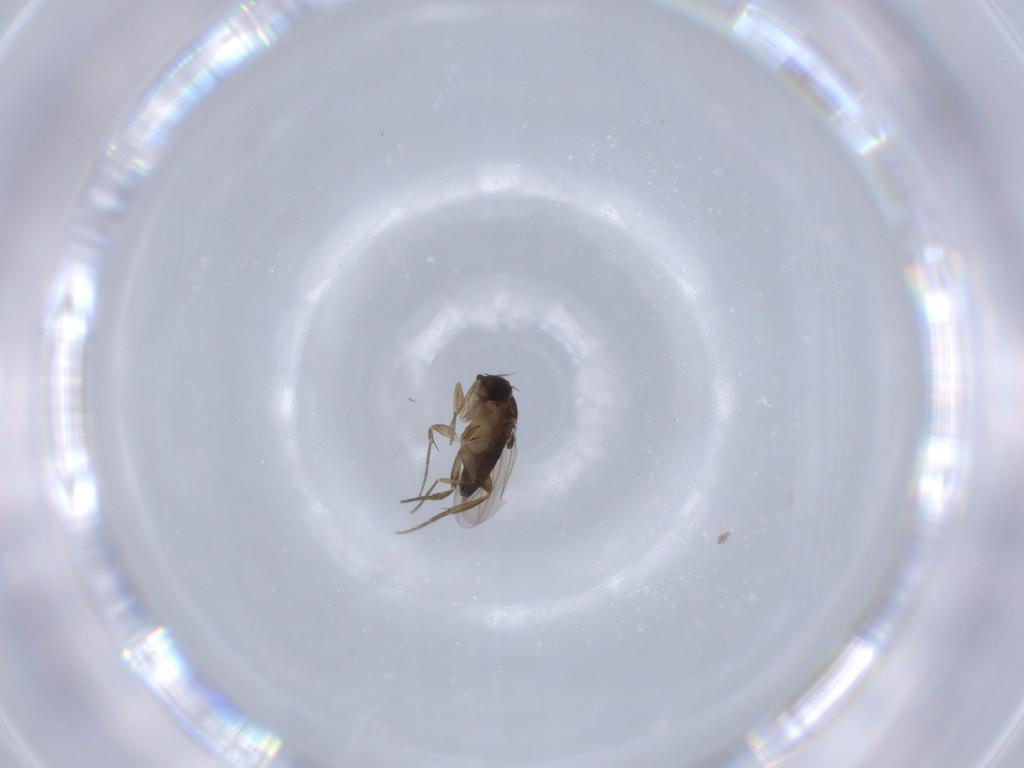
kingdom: Animalia
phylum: Arthropoda
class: Insecta
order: Diptera
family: Phoridae
